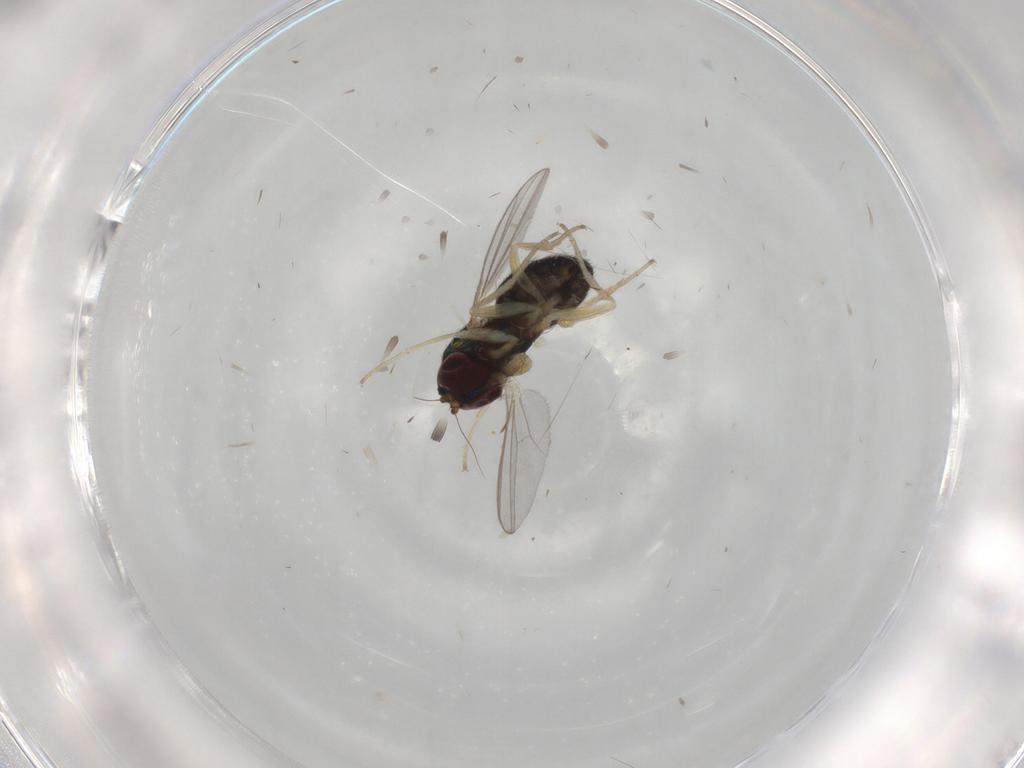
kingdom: Animalia
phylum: Arthropoda
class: Insecta
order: Diptera
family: Dolichopodidae
